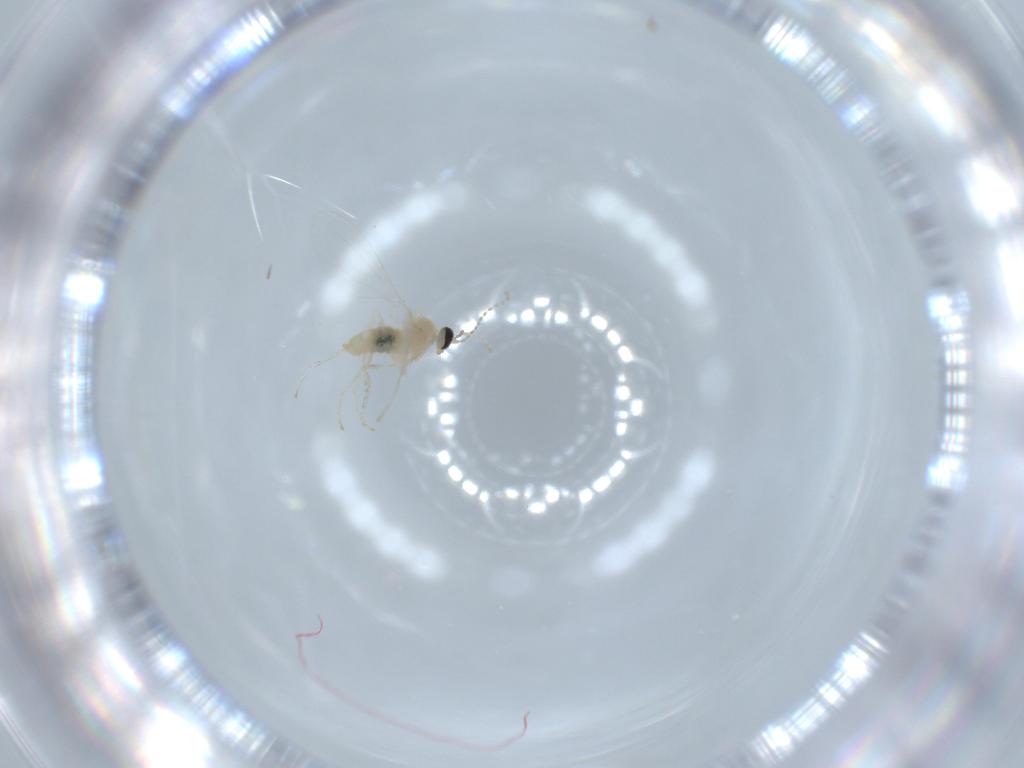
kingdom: Animalia
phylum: Arthropoda
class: Insecta
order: Diptera
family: Cecidomyiidae
